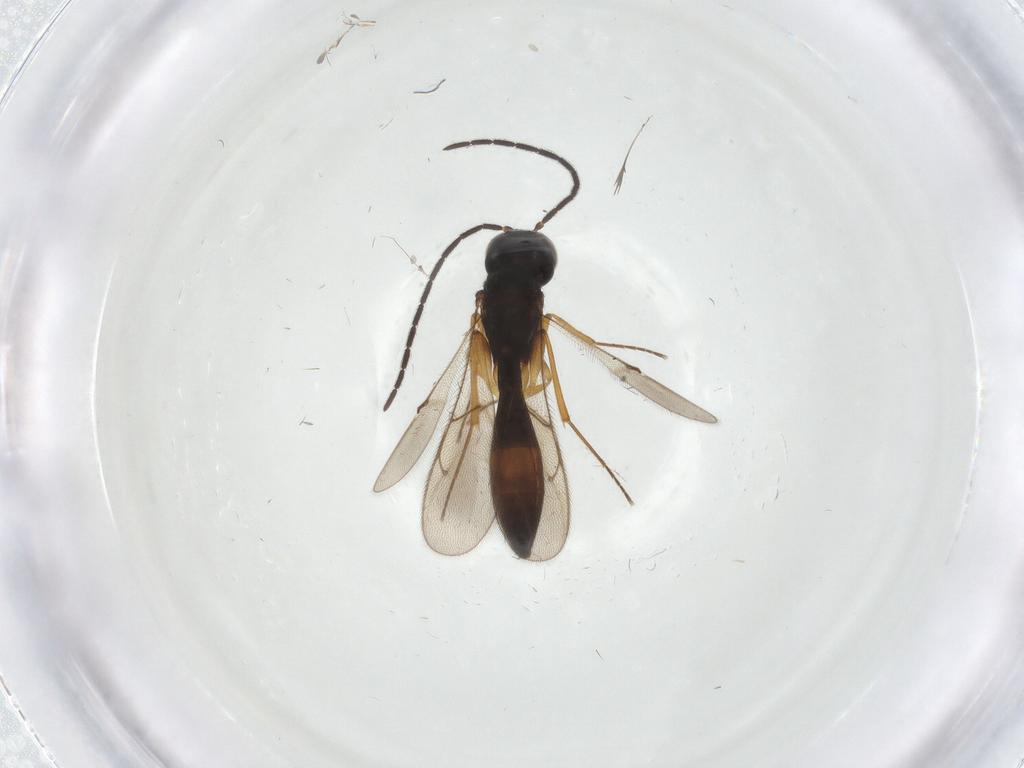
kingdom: Animalia
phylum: Arthropoda
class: Insecta
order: Hymenoptera
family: Scelionidae
